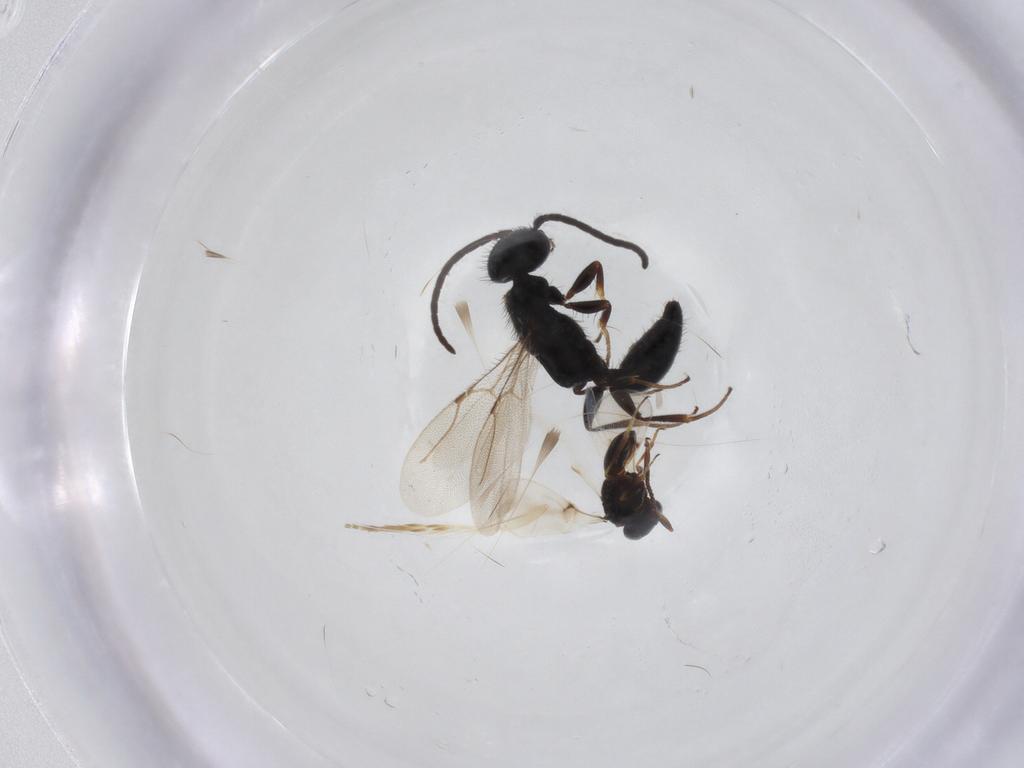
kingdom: Animalia
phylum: Arthropoda
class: Insecta
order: Hymenoptera
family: Bethylidae
